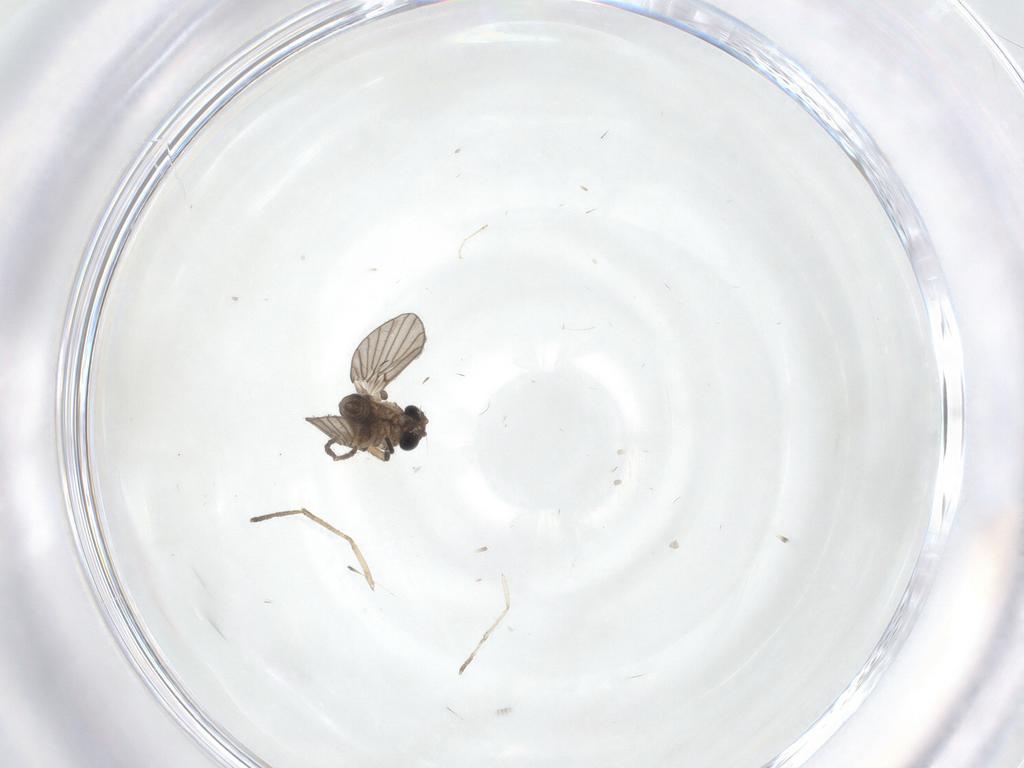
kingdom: Animalia
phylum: Arthropoda
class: Insecta
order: Diptera
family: Psychodidae
